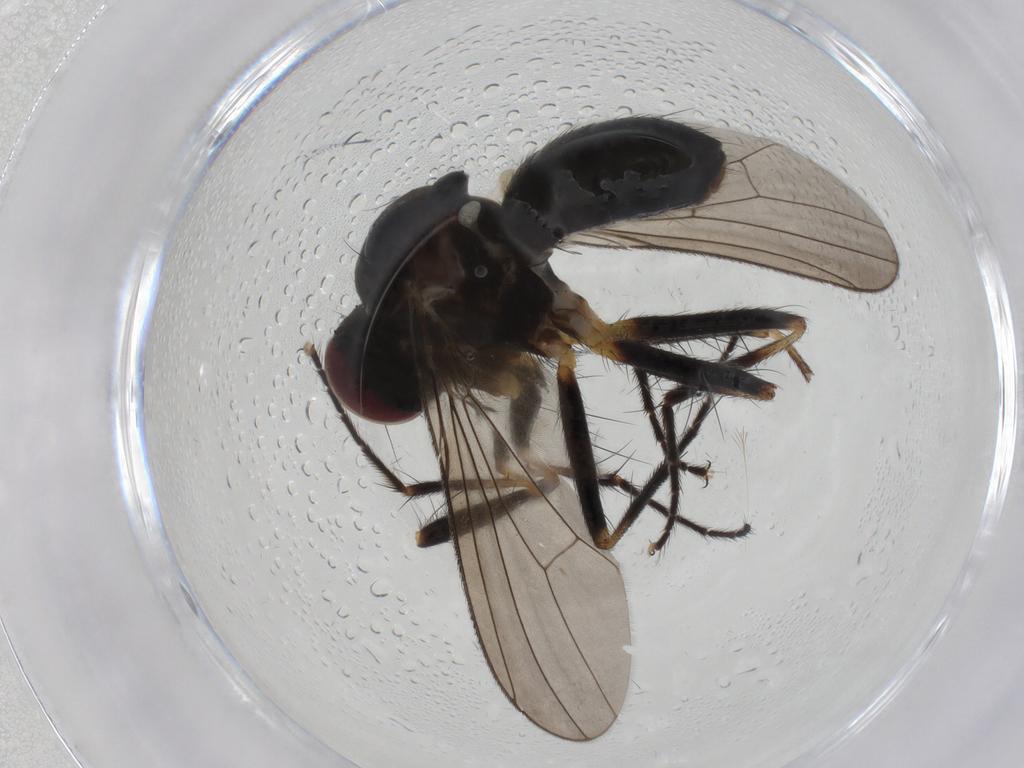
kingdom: Animalia
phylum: Arthropoda
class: Insecta
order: Diptera
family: Anthomyiidae
